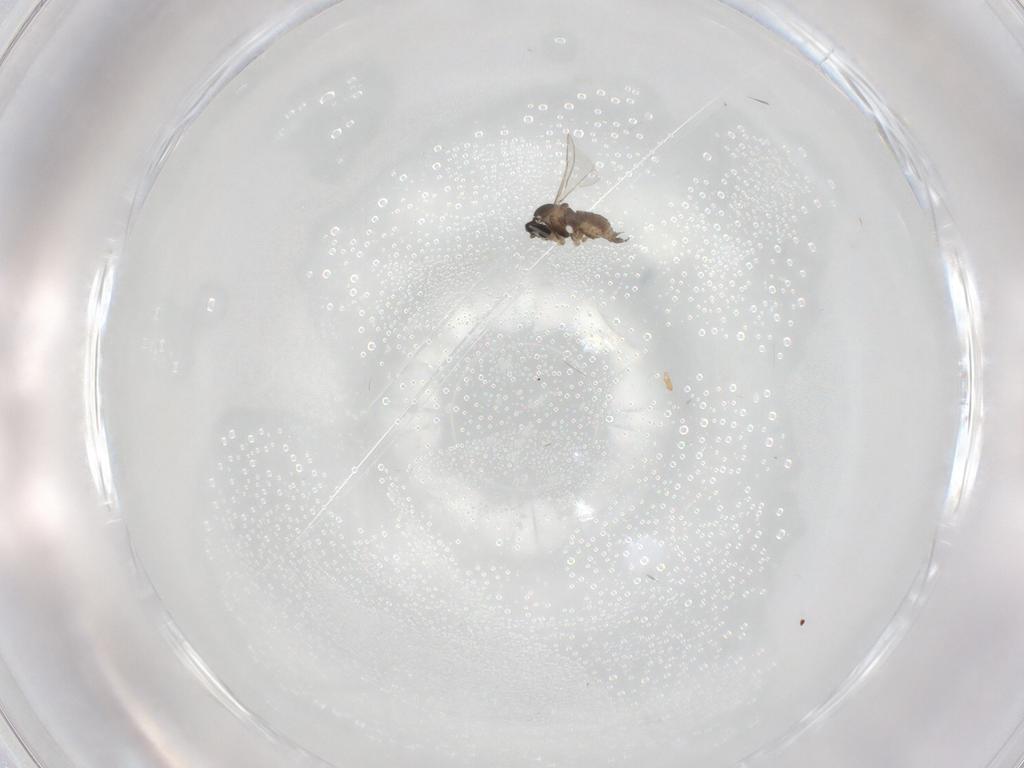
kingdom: Animalia
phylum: Arthropoda
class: Insecta
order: Diptera
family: Cecidomyiidae
